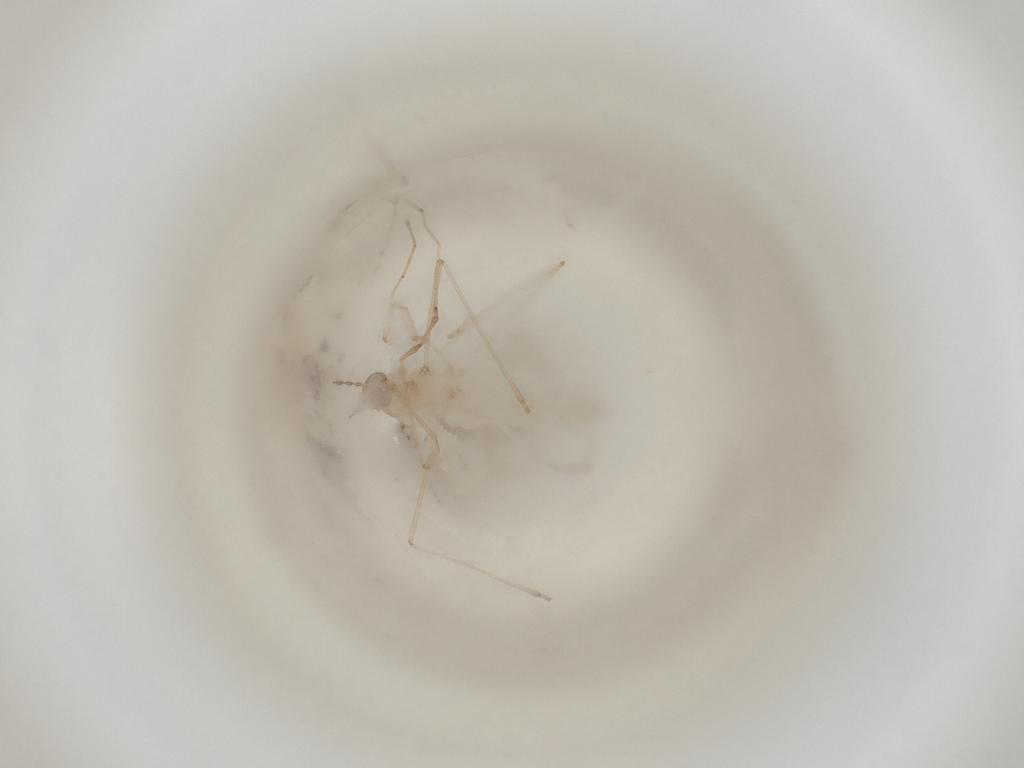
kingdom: Animalia
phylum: Arthropoda
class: Insecta
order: Diptera
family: Cecidomyiidae
